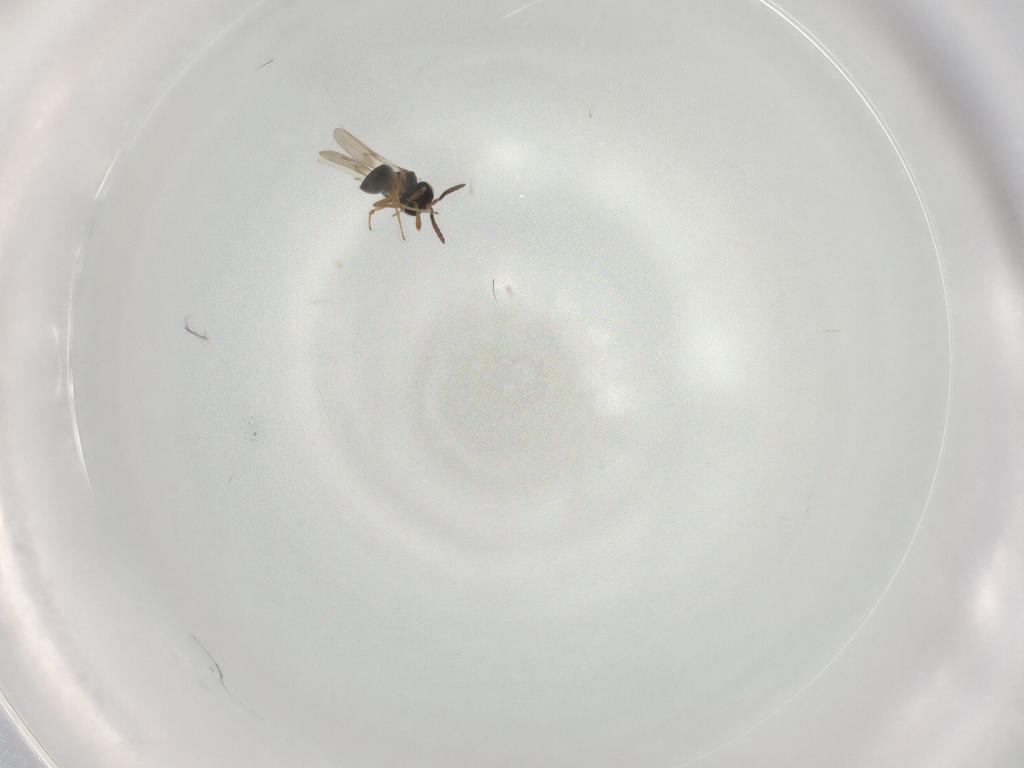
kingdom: Animalia
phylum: Arthropoda
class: Insecta
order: Hymenoptera
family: Scelionidae
